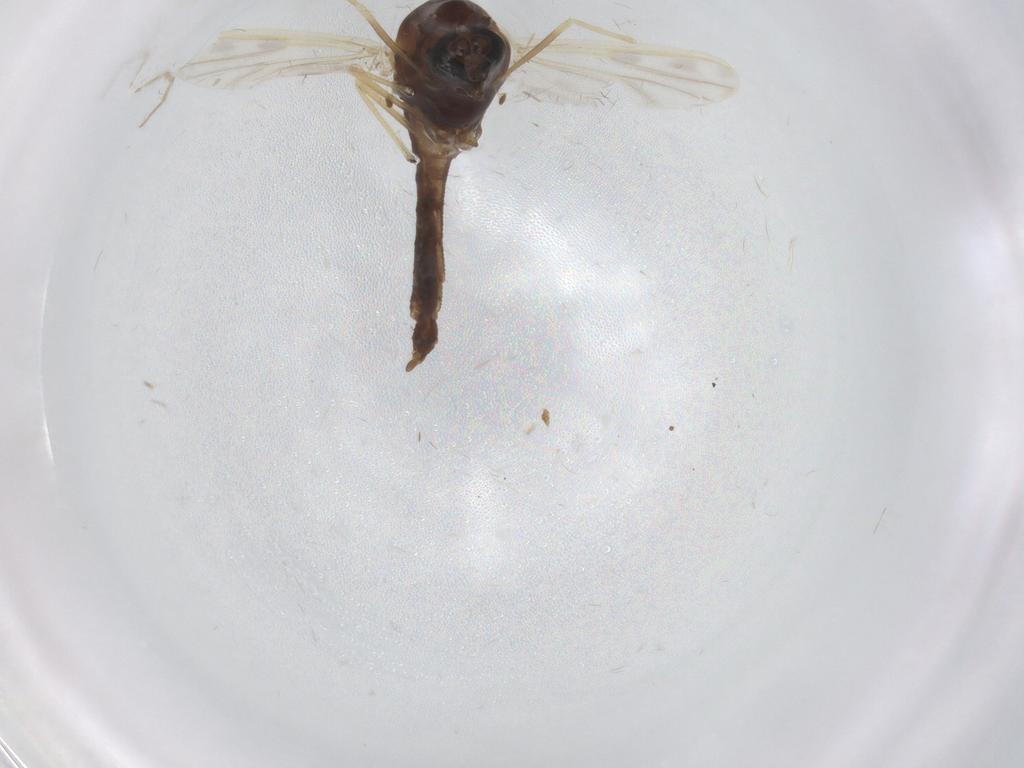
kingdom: Animalia
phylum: Arthropoda
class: Insecta
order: Diptera
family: Chironomidae
